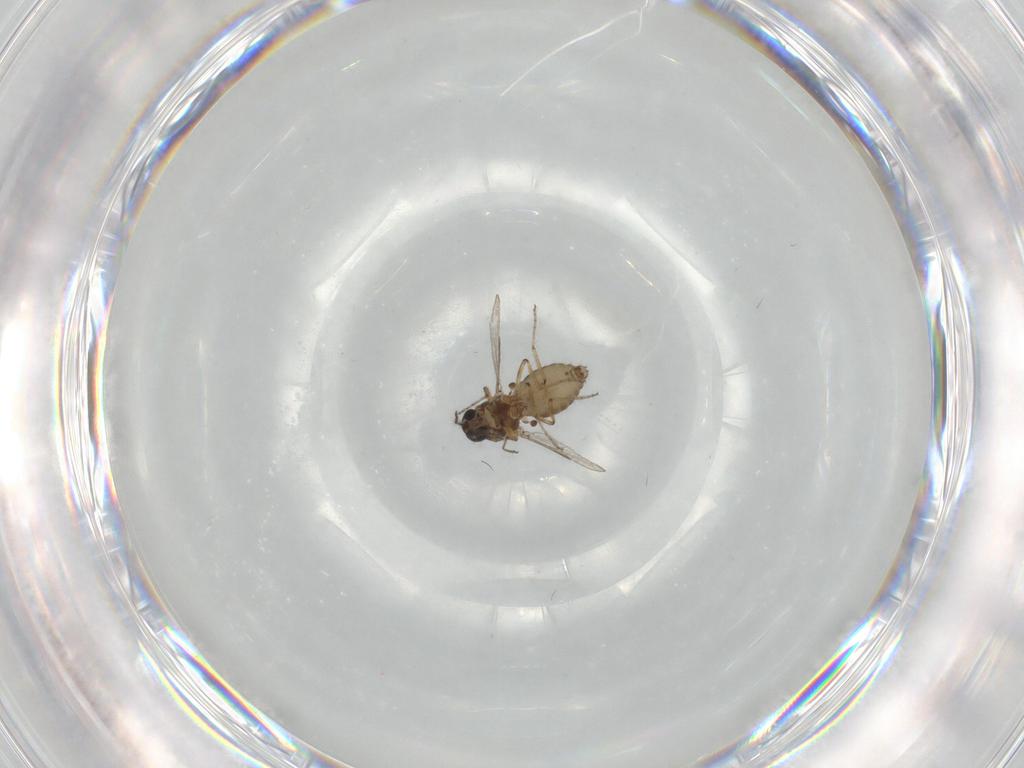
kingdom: Animalia
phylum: Arthropoda
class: Insecta
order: Diptera
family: Ceratopogonidae
